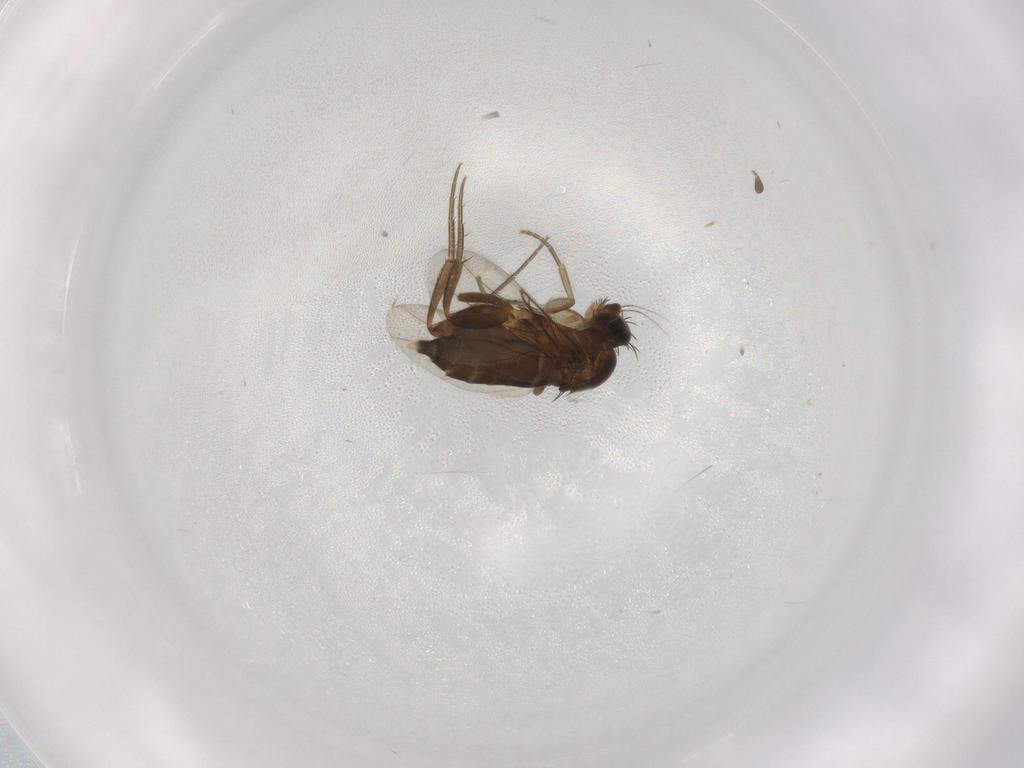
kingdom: Animalia
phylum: Arthropoda
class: Insecta
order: Diptera
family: Phoridae
